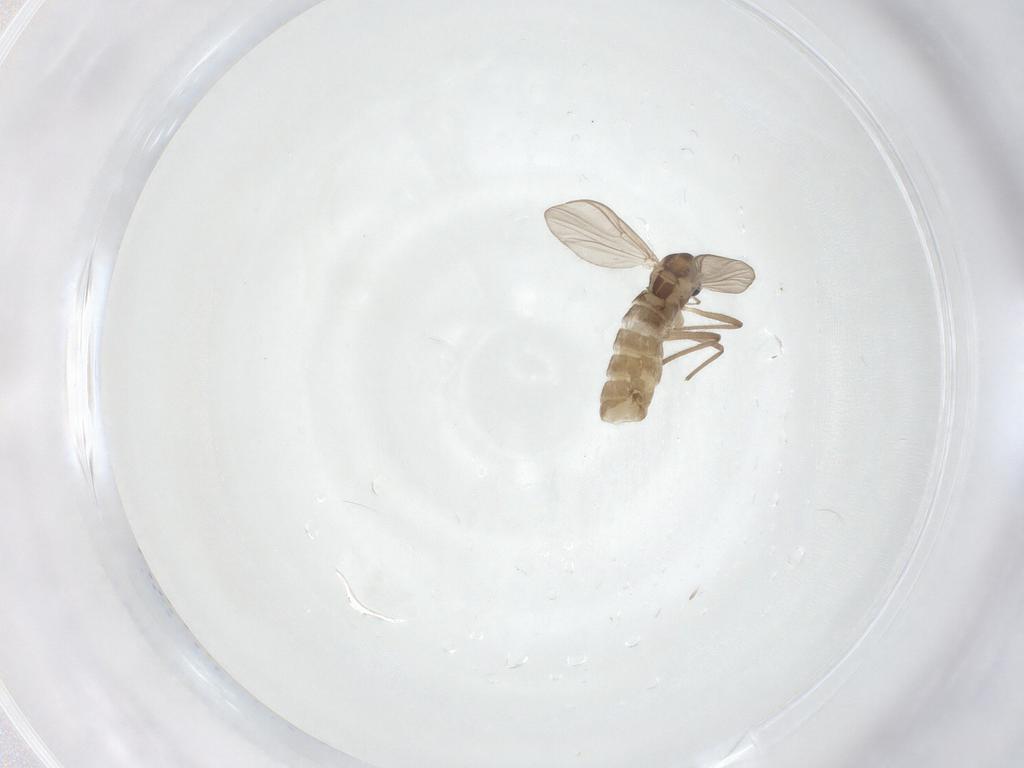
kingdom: Animalia
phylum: Arthropoda
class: Insecta
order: Diptera
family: Chironomidae
